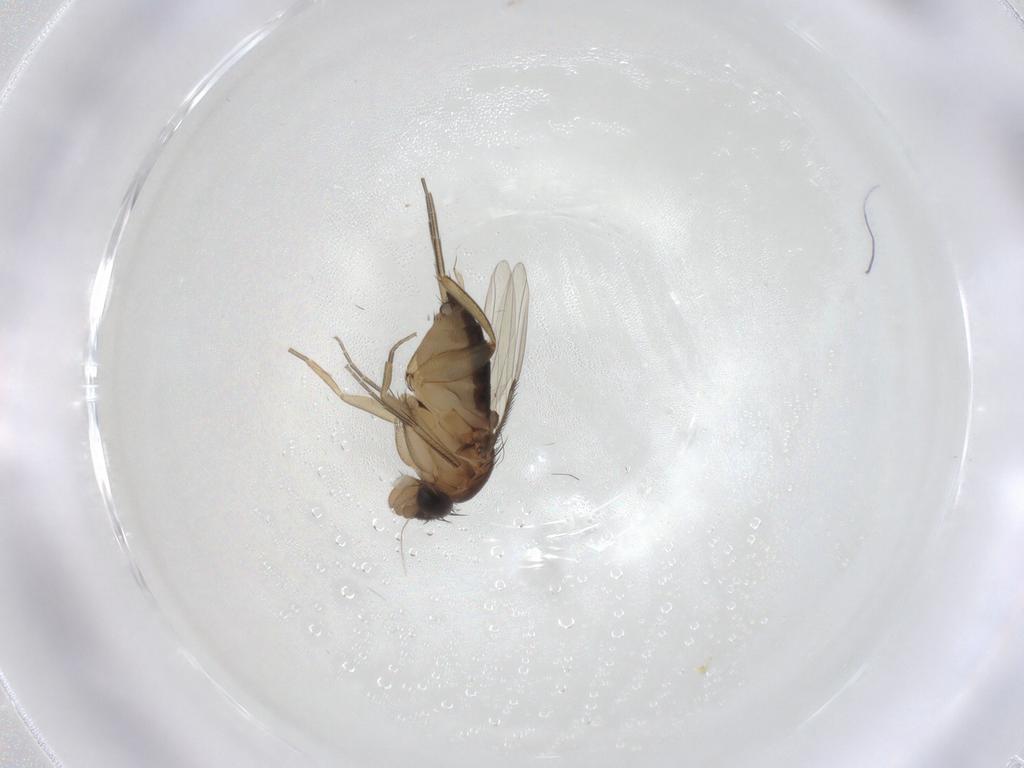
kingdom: Animalia
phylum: Arthropoda
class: Insecta
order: Diptera
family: Phoridae
